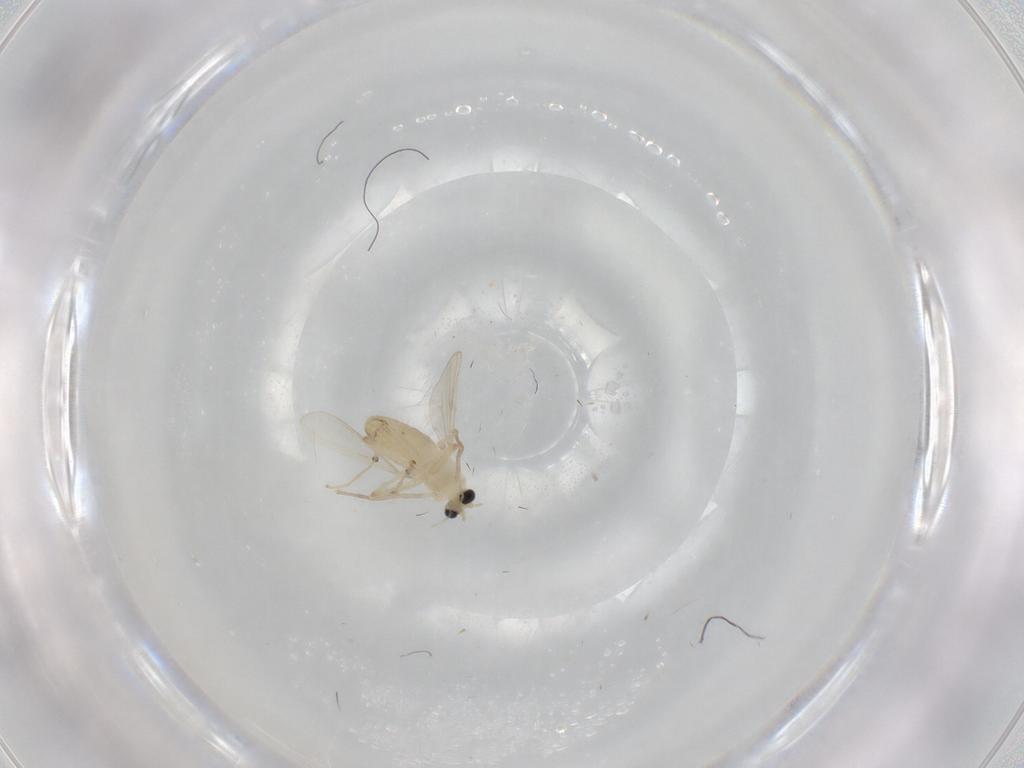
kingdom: Animalia
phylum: Arthropoda
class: Insecta
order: Diptera
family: Chironomidae
